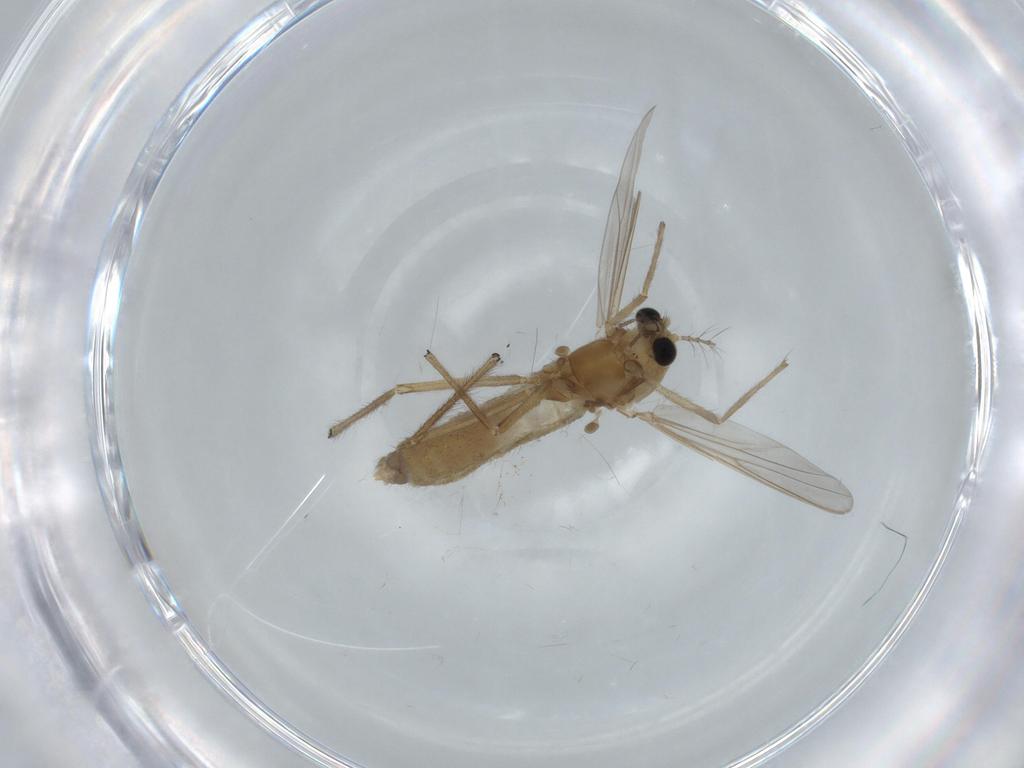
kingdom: Animalia
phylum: Arthropoda
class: Insecta
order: Diptera
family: Chironomidae
